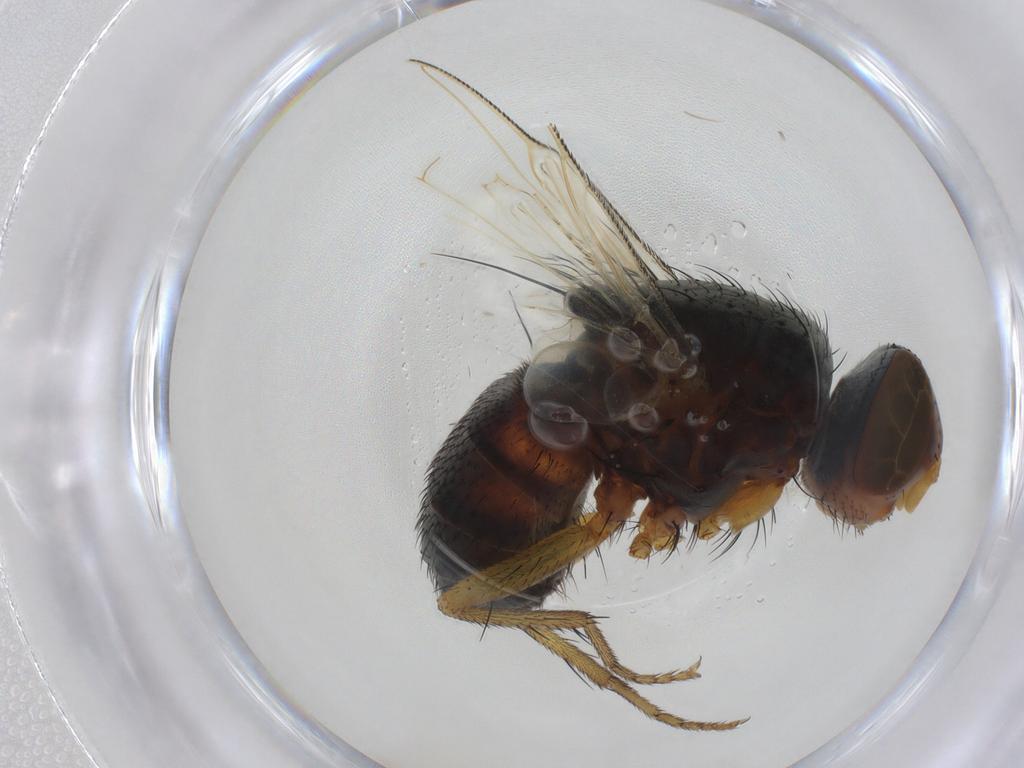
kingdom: Animalia
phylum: Arthropoda
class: Insecta
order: Diptera
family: Sarcophagidae
